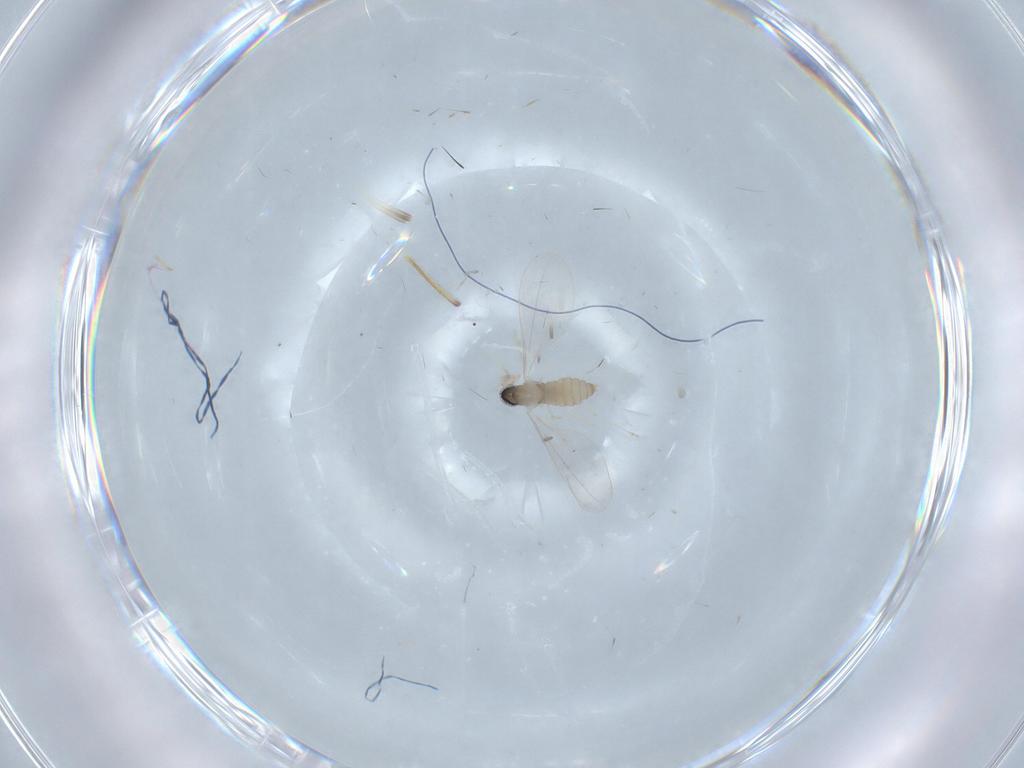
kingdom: Animalia
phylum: Arthropoda
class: Insecta
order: Diptera
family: Cecidomyiidae
